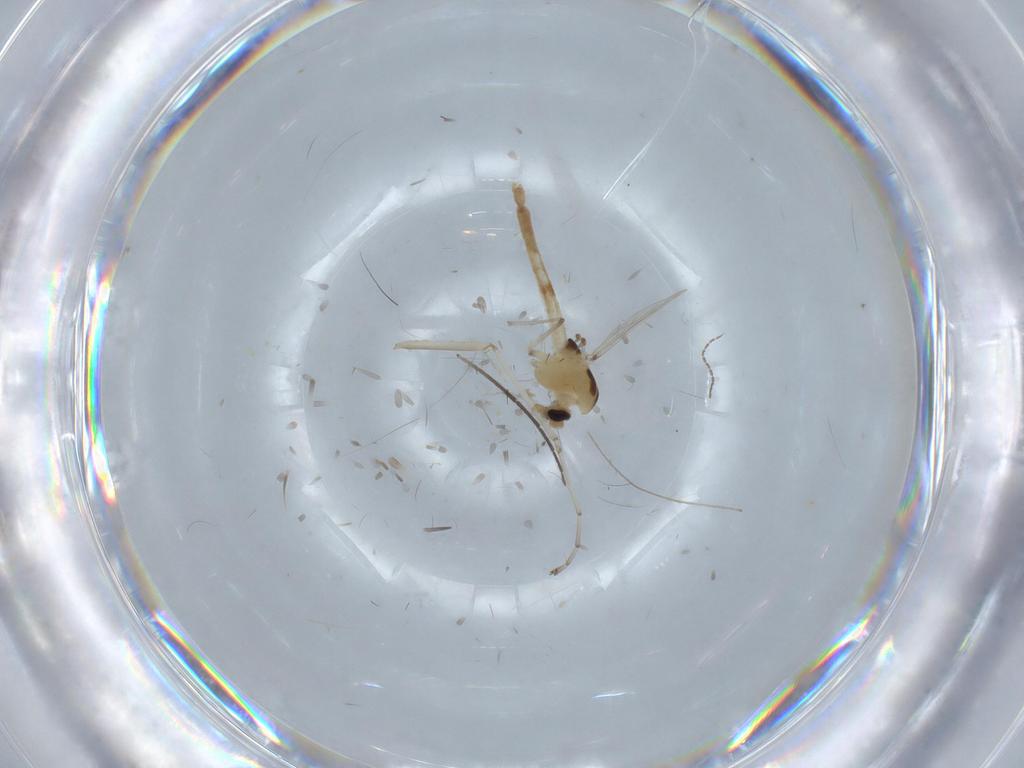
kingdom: Animalia
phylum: Arthropoda
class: Insecta
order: Diptera
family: Chironomidae
